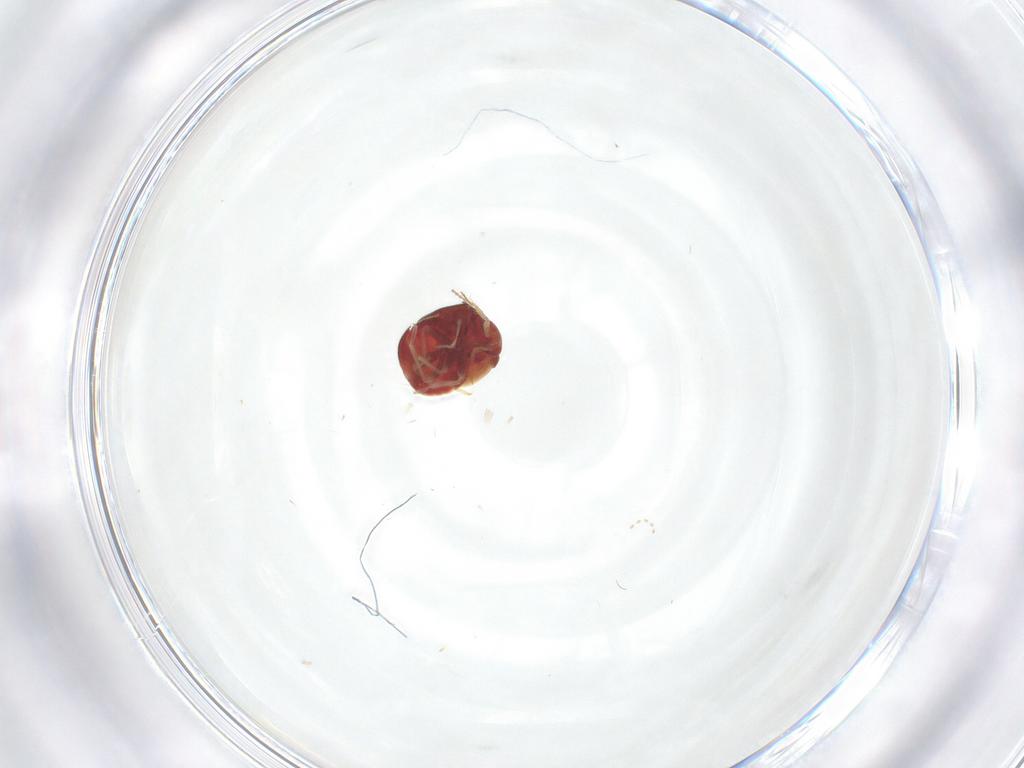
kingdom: Animalia
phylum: Arthropoda
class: Insecta
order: Hemiptera
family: Anthocoridae
